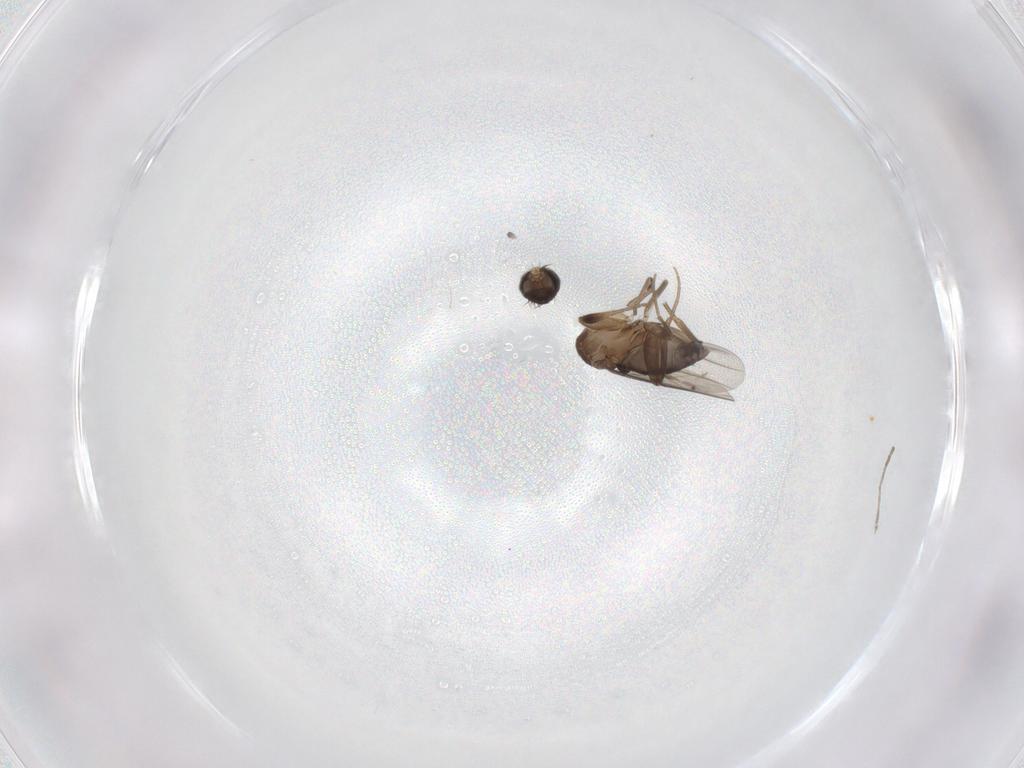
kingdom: Animalia
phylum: Arthropoda
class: Insecta
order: Diptera
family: Phoridae
